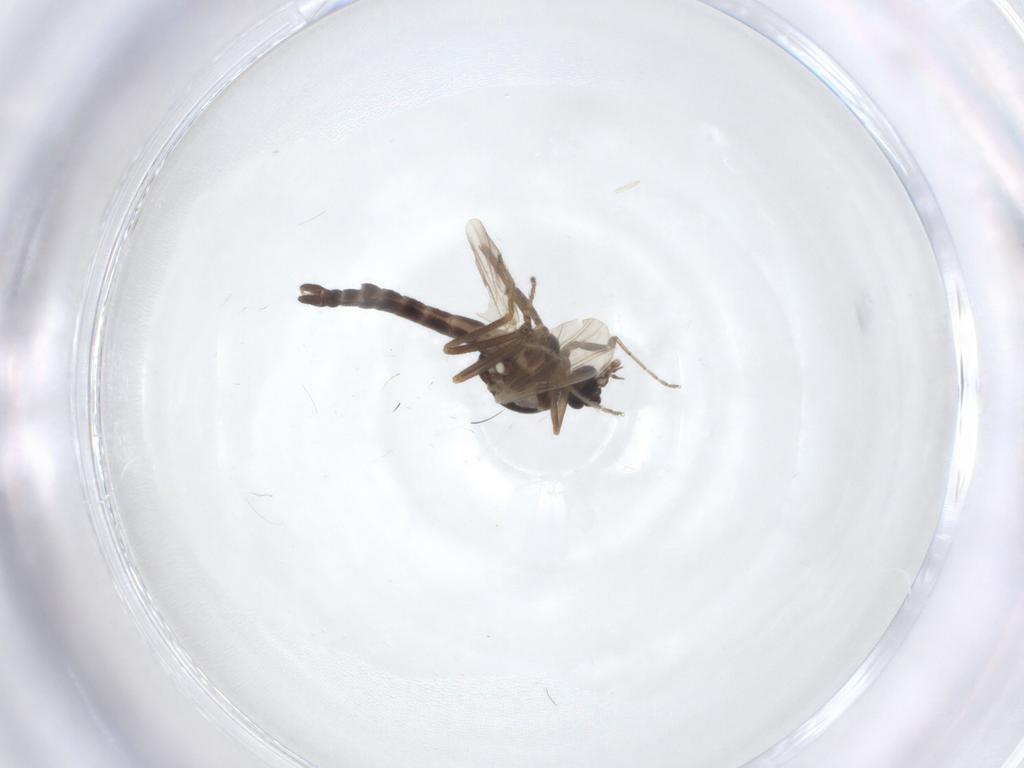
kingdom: Animalia
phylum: Arthropoda
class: Insecta
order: Diptera
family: Ceratopogonidae
